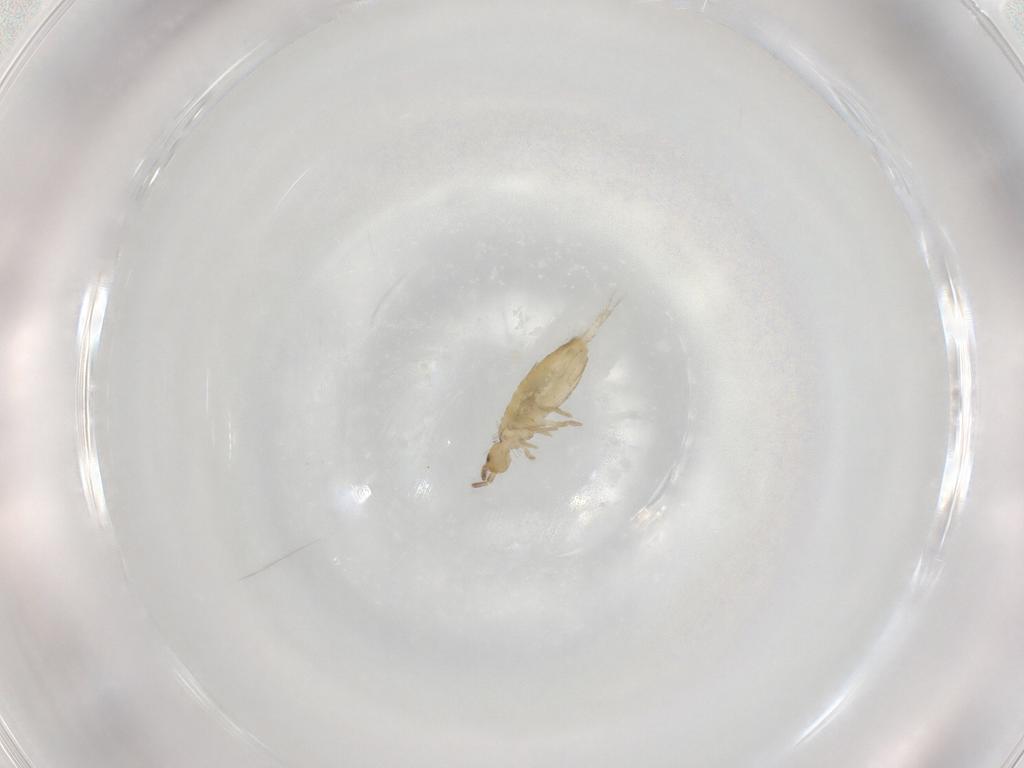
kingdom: Animalia
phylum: Arthropoda
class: Collembola
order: Entomobryomorpha
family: Entomobryidae
